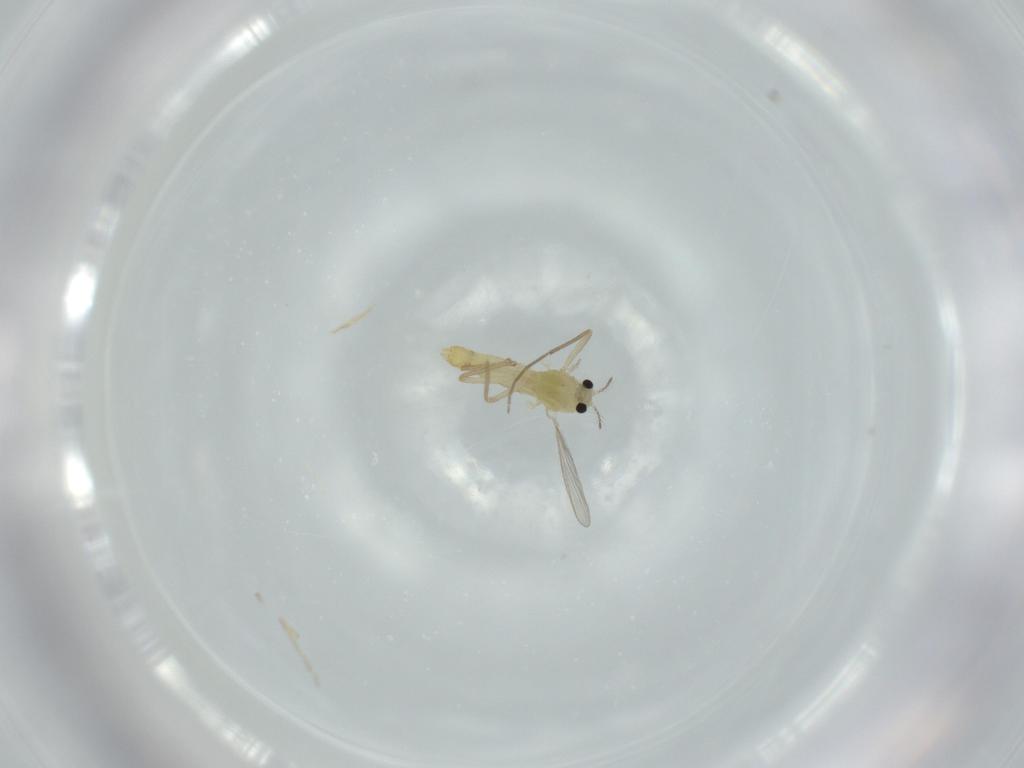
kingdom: Animalia
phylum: Arthropoda
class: Insecta
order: Diptera
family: Chironomidae
